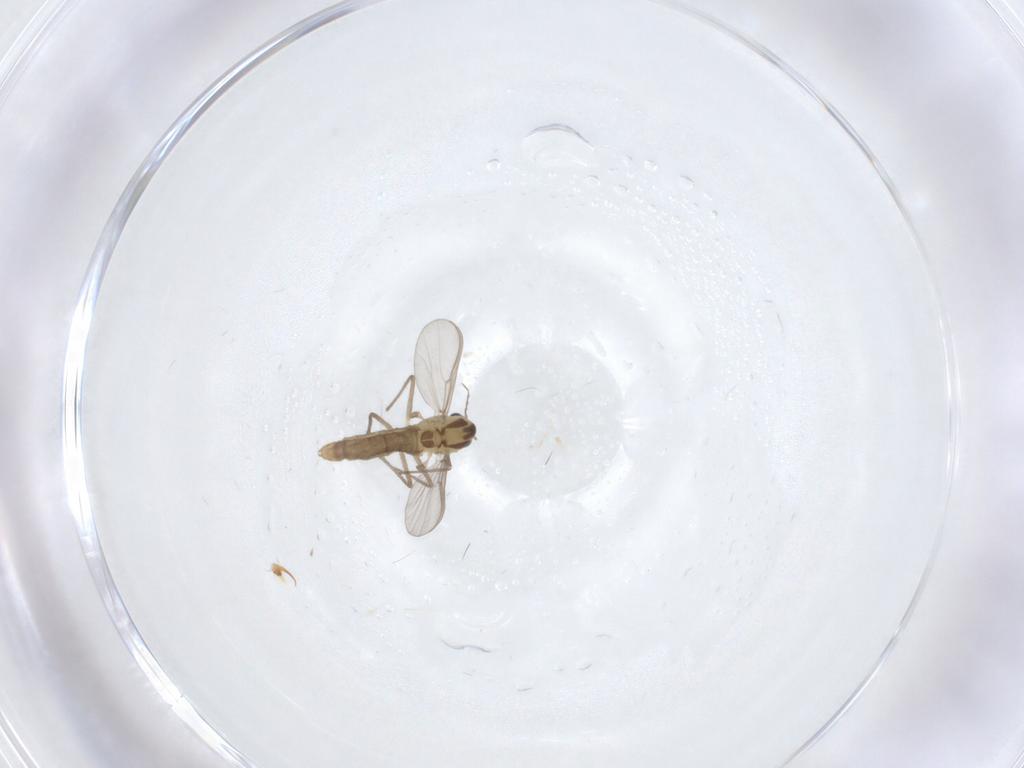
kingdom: Animalia
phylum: Arthropoda
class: Insecta
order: Diptera
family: Chironomidae
